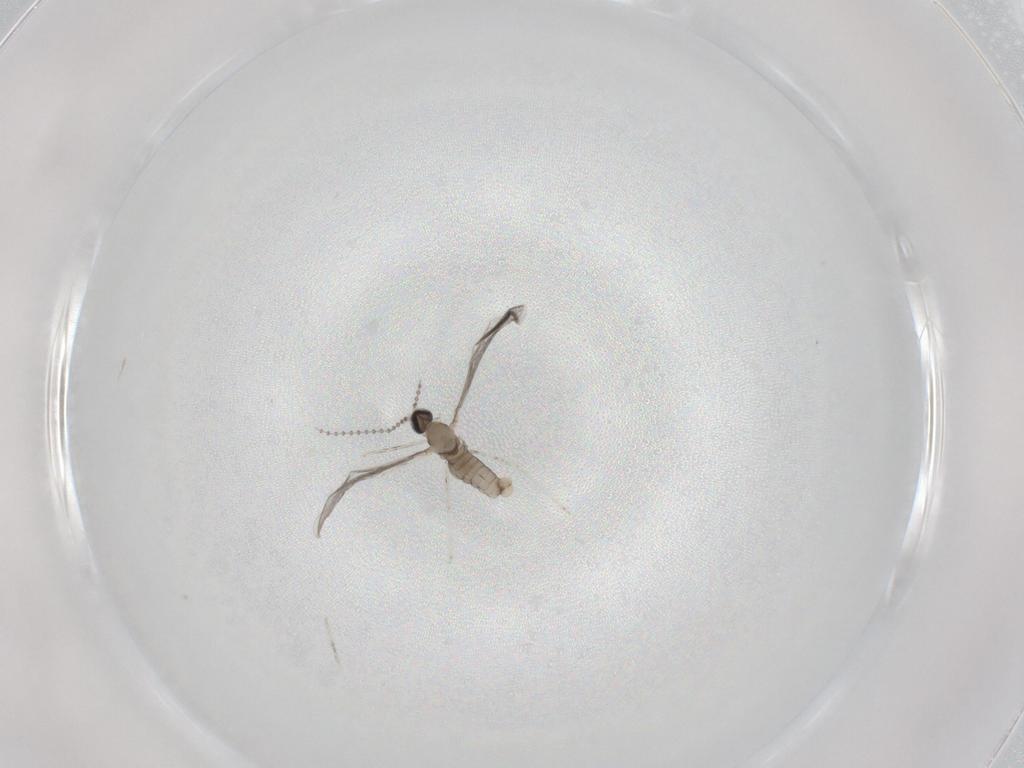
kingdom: Animalia
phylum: Arthropoda
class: Insecta
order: Diptera
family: Cecidomyiidae
